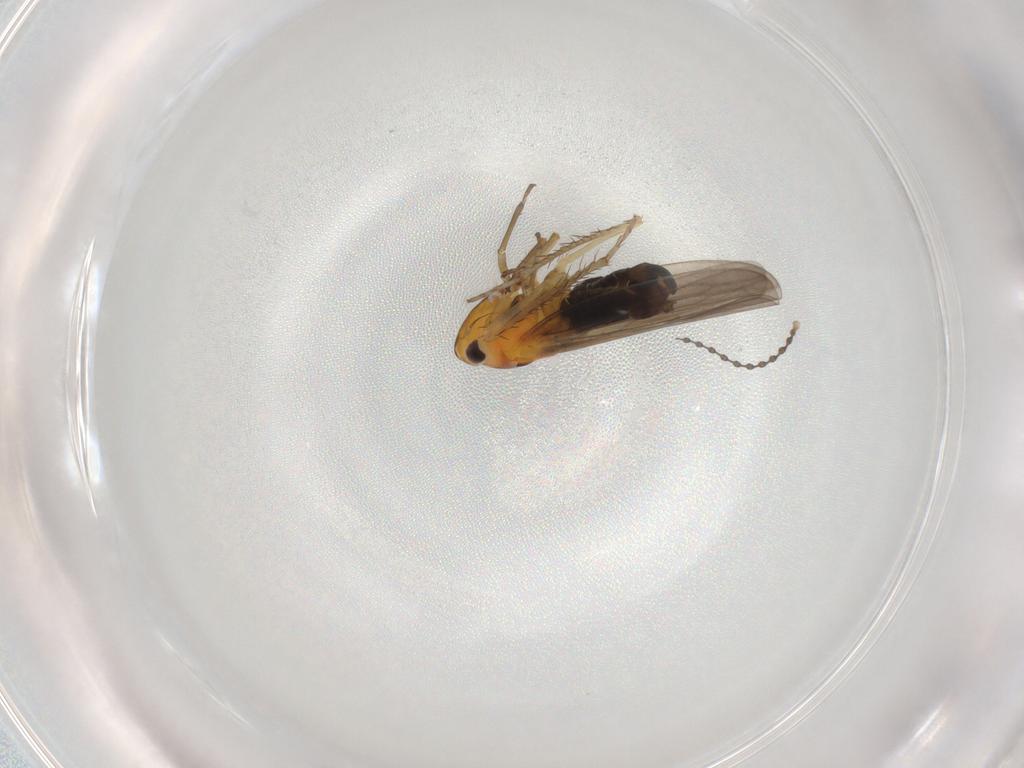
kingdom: Animalia
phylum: Arthropoda
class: Insecta
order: Hemiptera
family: Cicadellidae
